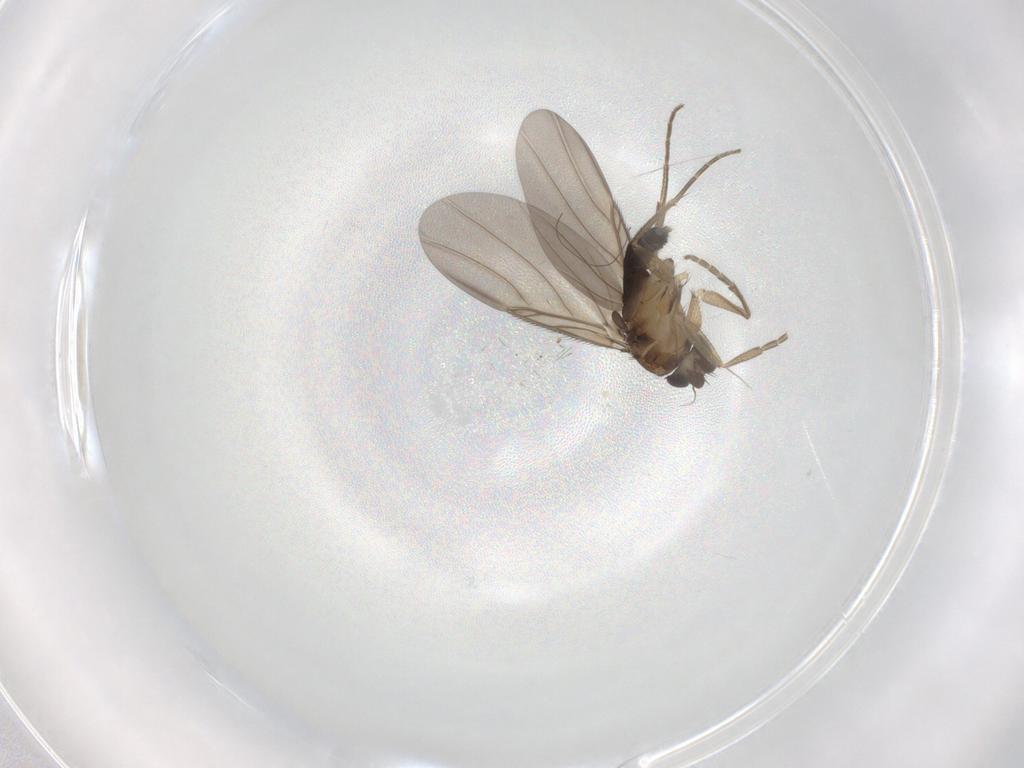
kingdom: Animalia
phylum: Arthropoda
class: Insecta
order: Diptera
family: Phoridae
